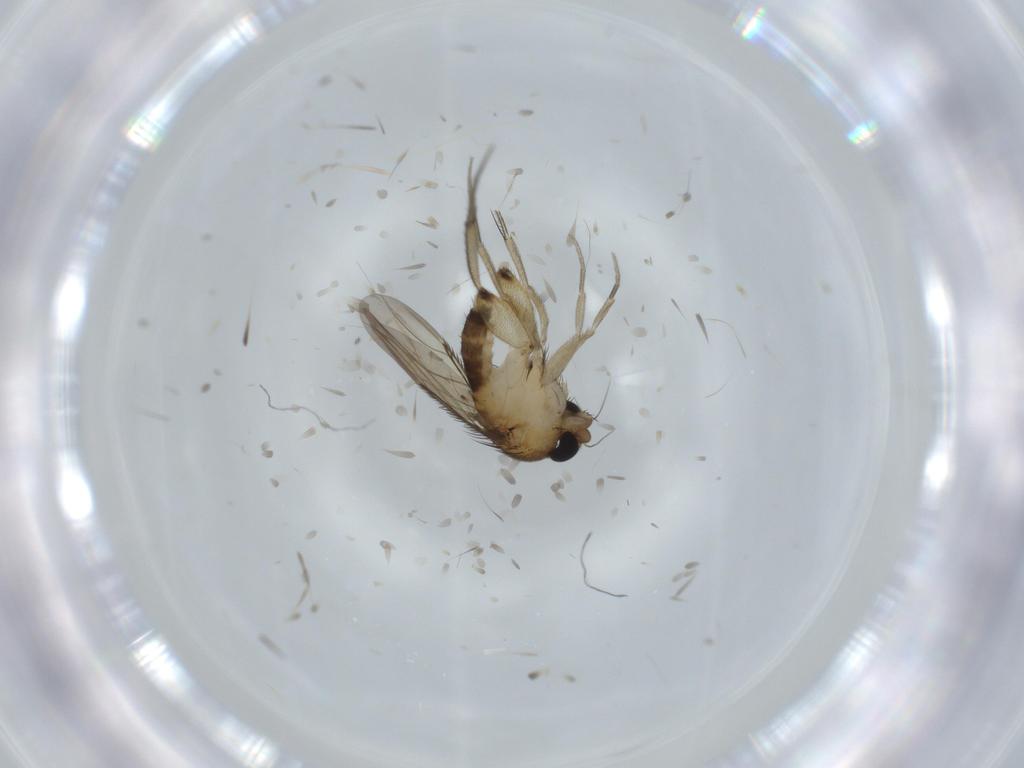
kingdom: Animalia
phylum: Arthropoda
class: Insecta
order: Diptera
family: Phoridae
